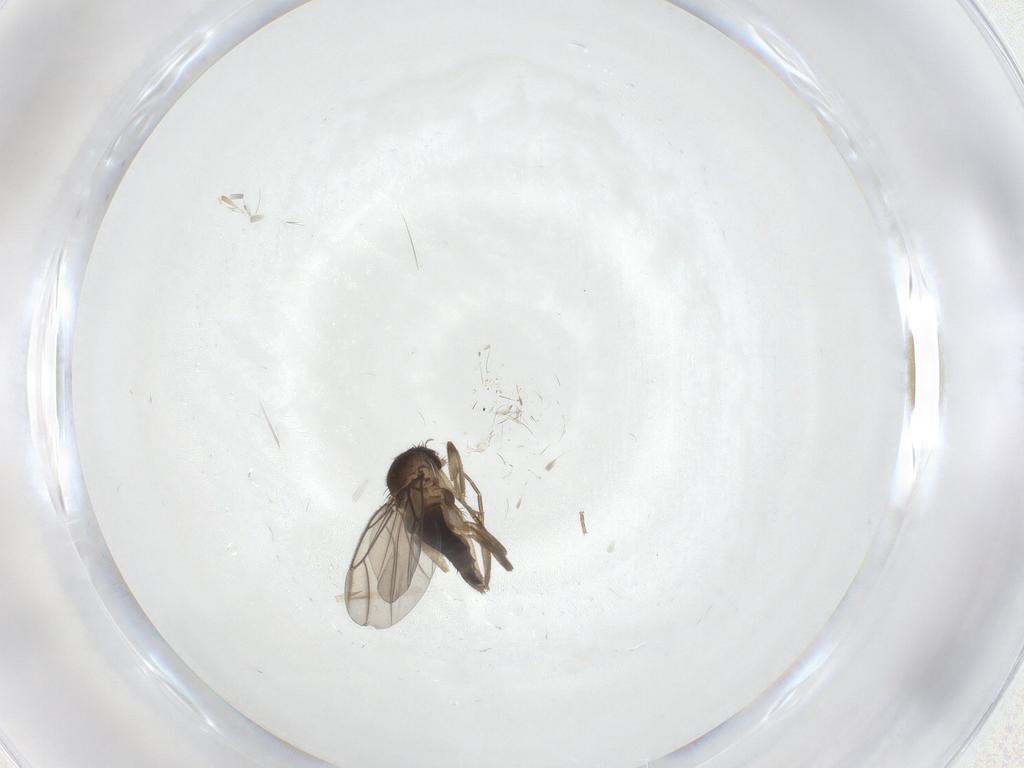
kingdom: Animalia
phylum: Arthropoda
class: Insecta
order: Diptera
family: Phoridae
